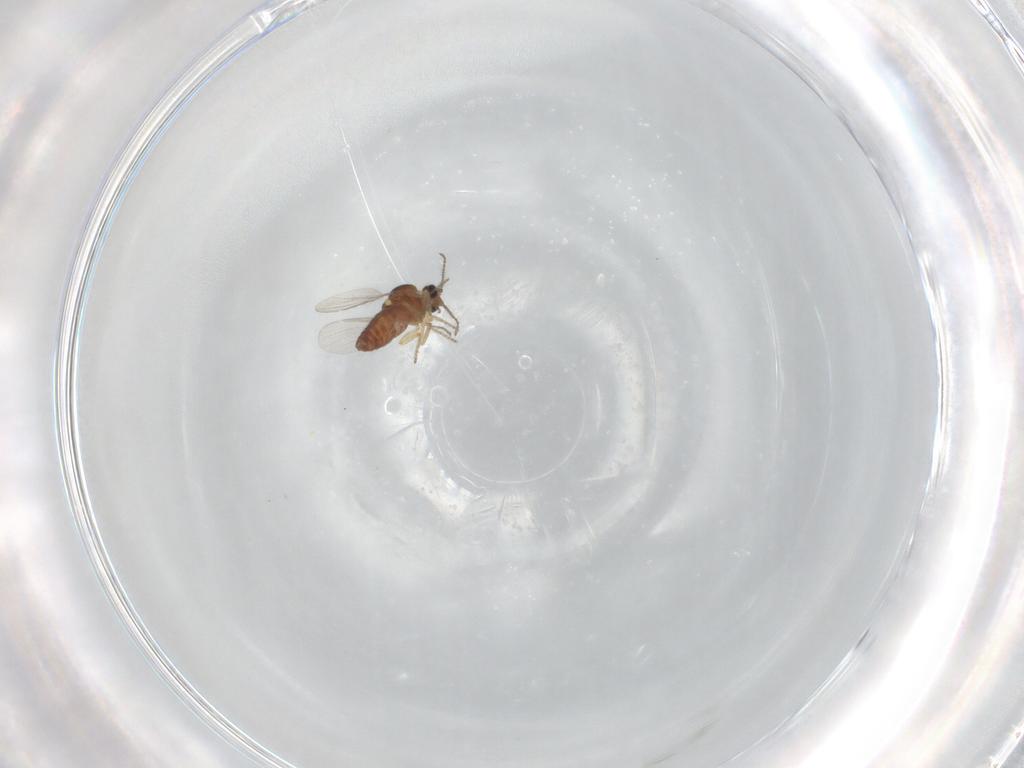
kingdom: Animalia
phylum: Arthropoda
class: Insecta
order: Diptera
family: Ceratopogonidae
